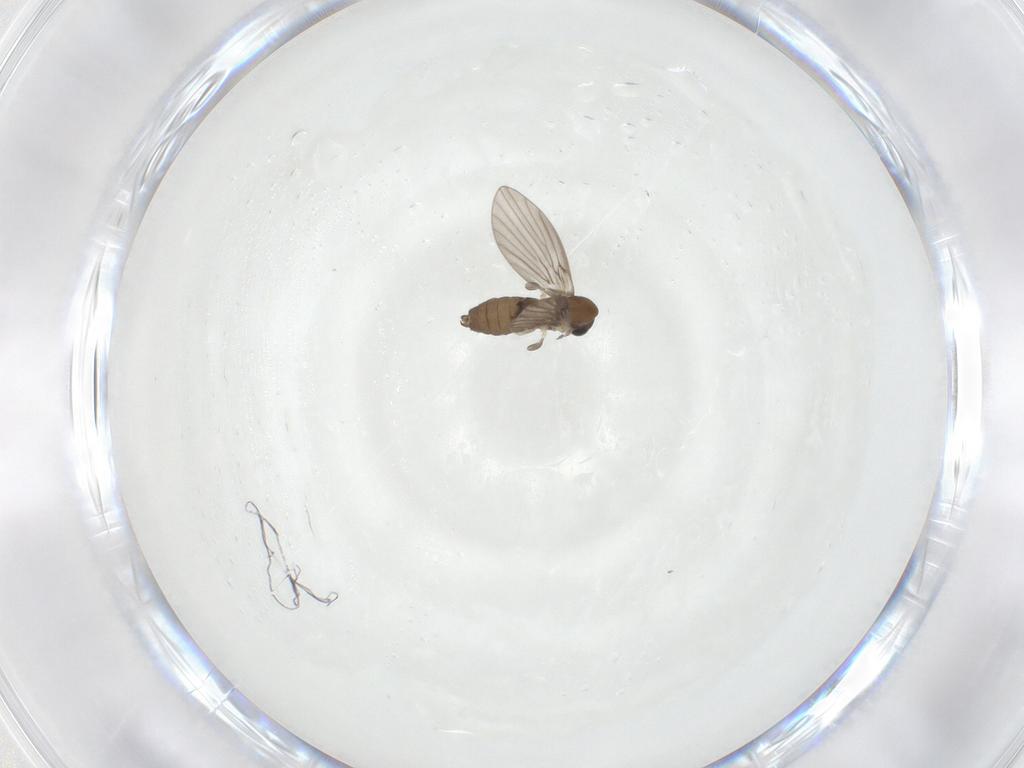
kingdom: Animalia
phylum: Arthropoda
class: Insecta
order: Diptera
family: Psychodidae
